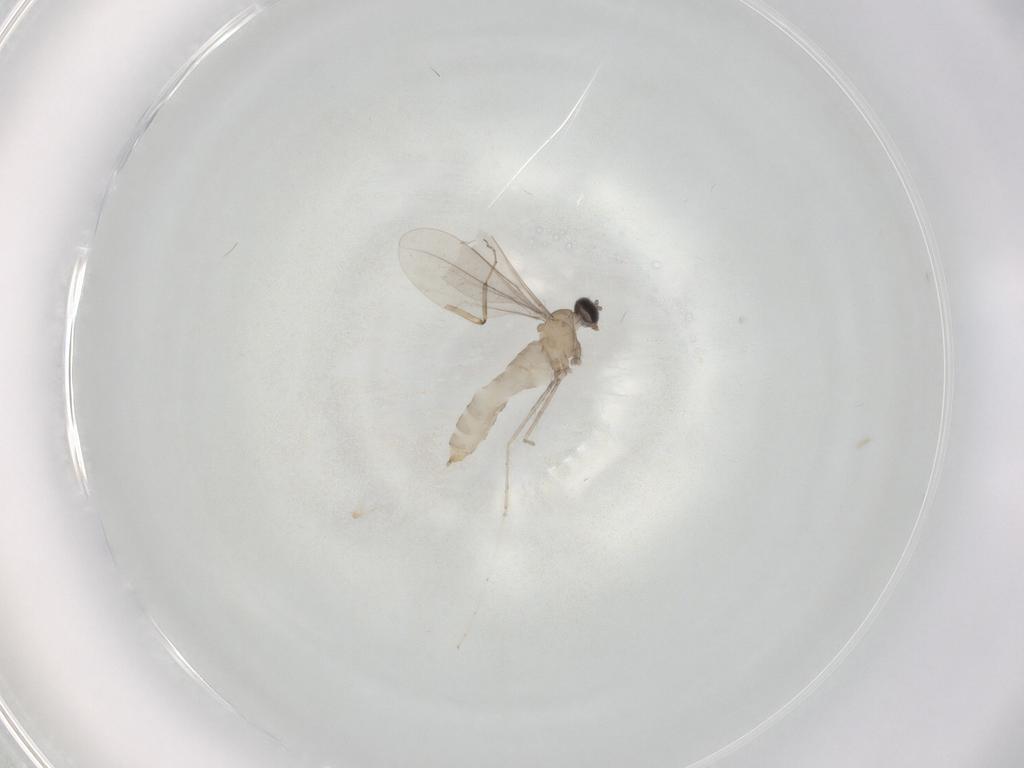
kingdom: Animalia
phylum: Arthropoda
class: Insecta
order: Diptera
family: Ceratopogonidae
